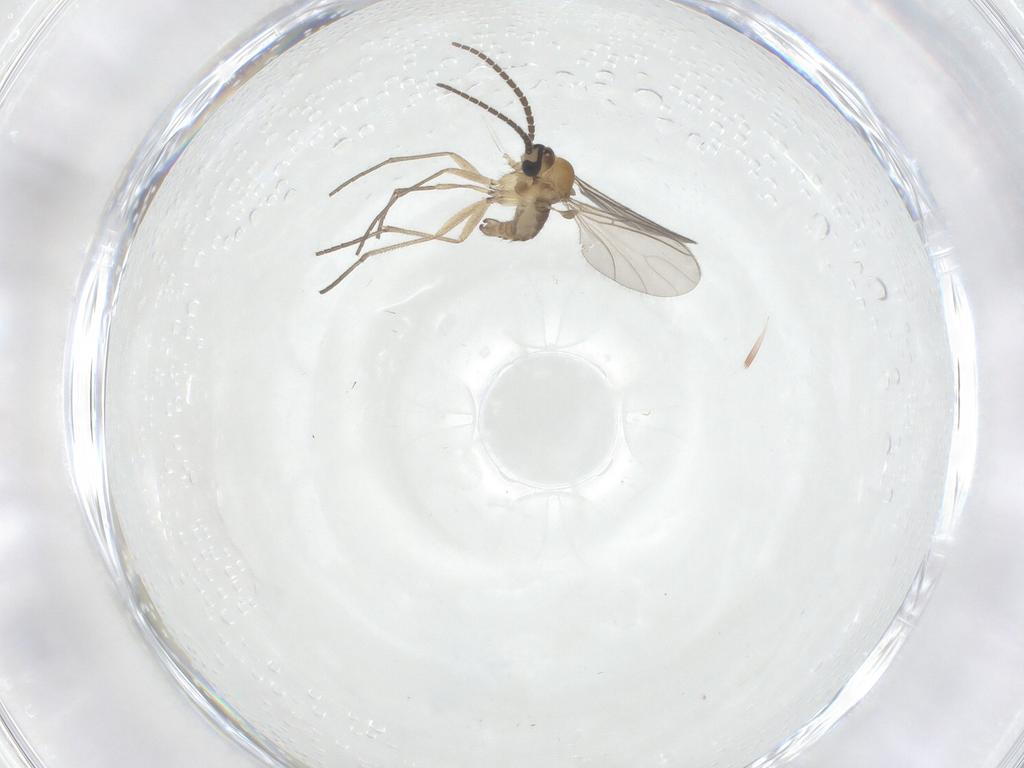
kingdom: Animalia
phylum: Arthropoda
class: Insecta
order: Diptera
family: Sciaridae
